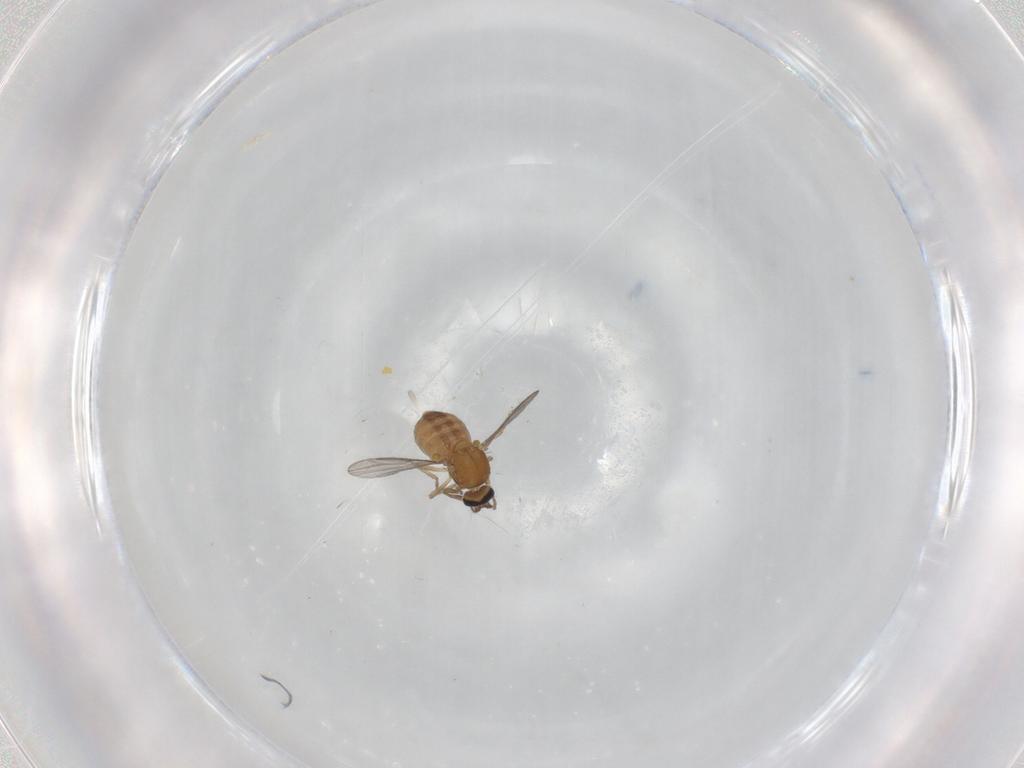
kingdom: Animalia
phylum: Arthropoda
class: Insecta
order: Diptera
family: Ceratopogonidae
